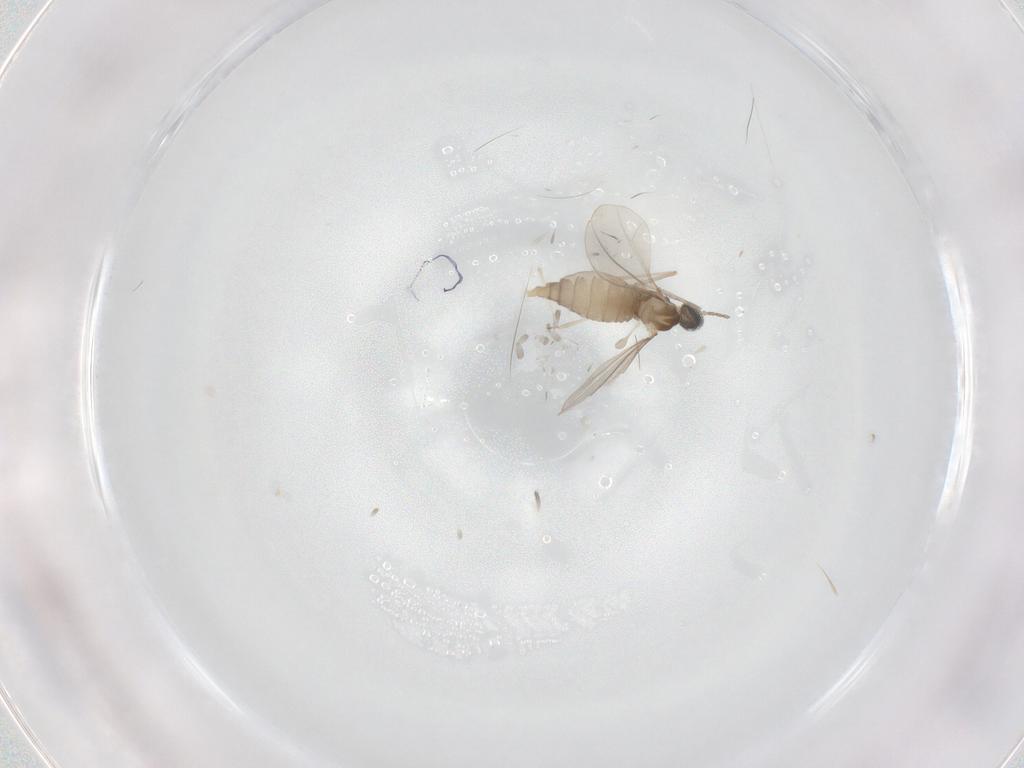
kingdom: Animalia
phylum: Arthropoda
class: Insecta
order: Diptera
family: Cecidomyiidae
